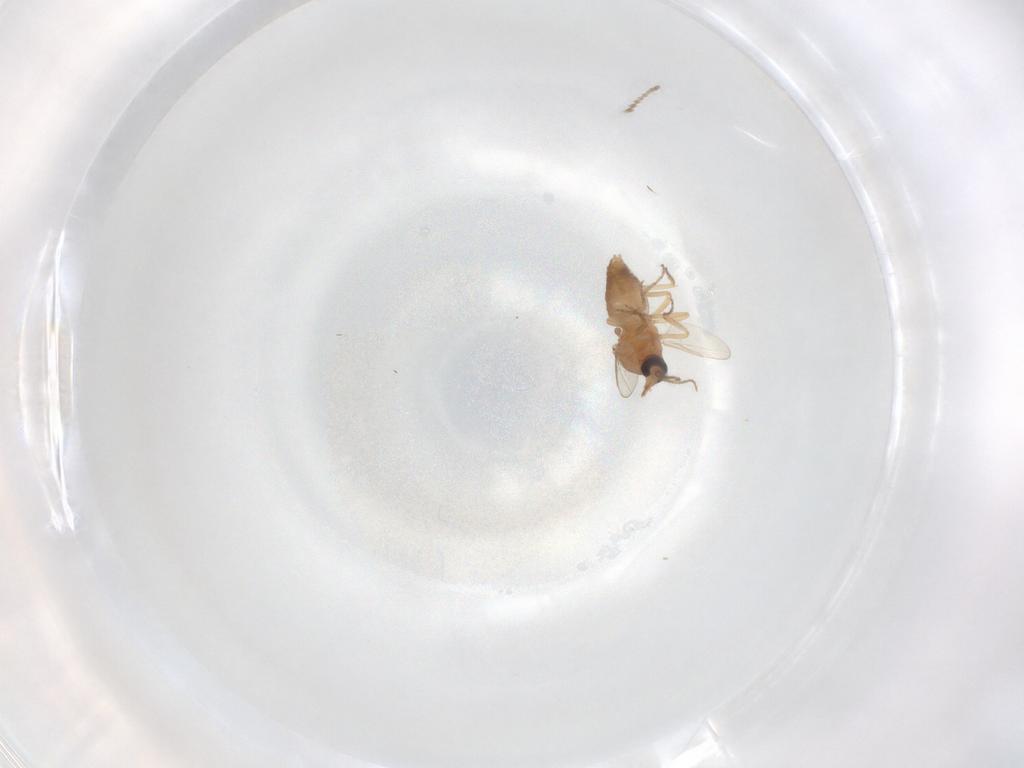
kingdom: Animalia
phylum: Arthropoda
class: Insecta
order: Diptera
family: Ceratopogonidae
